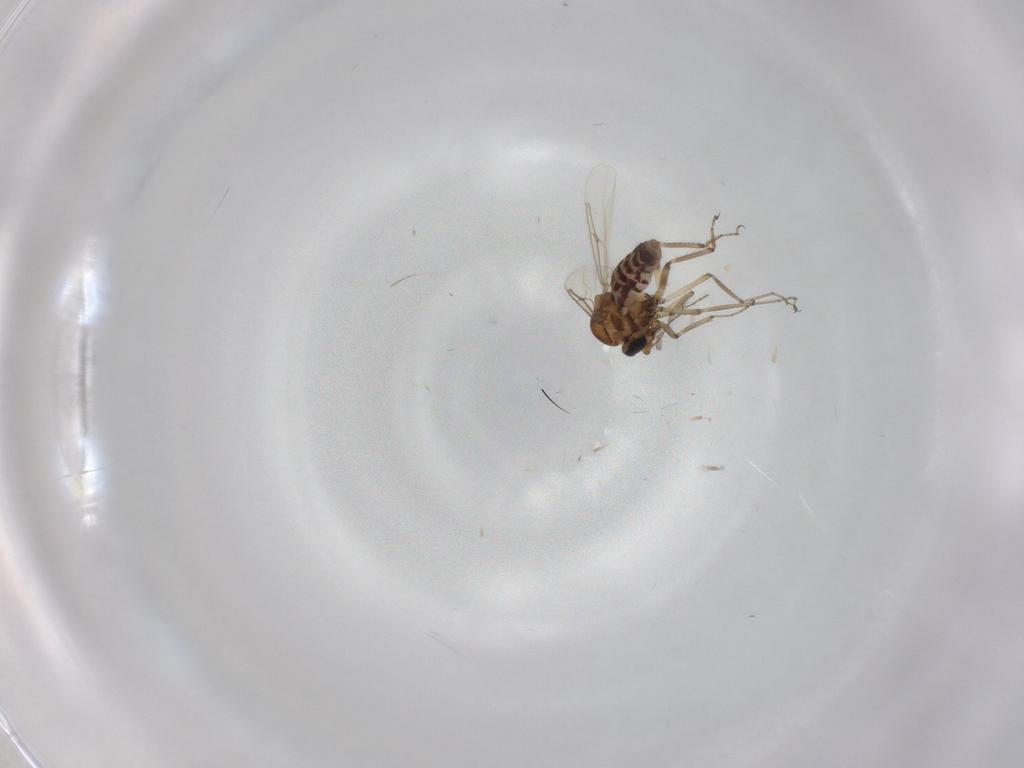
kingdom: Animalia
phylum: Arthropoda
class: Insecta
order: Diptera
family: Ceratopogonidae
